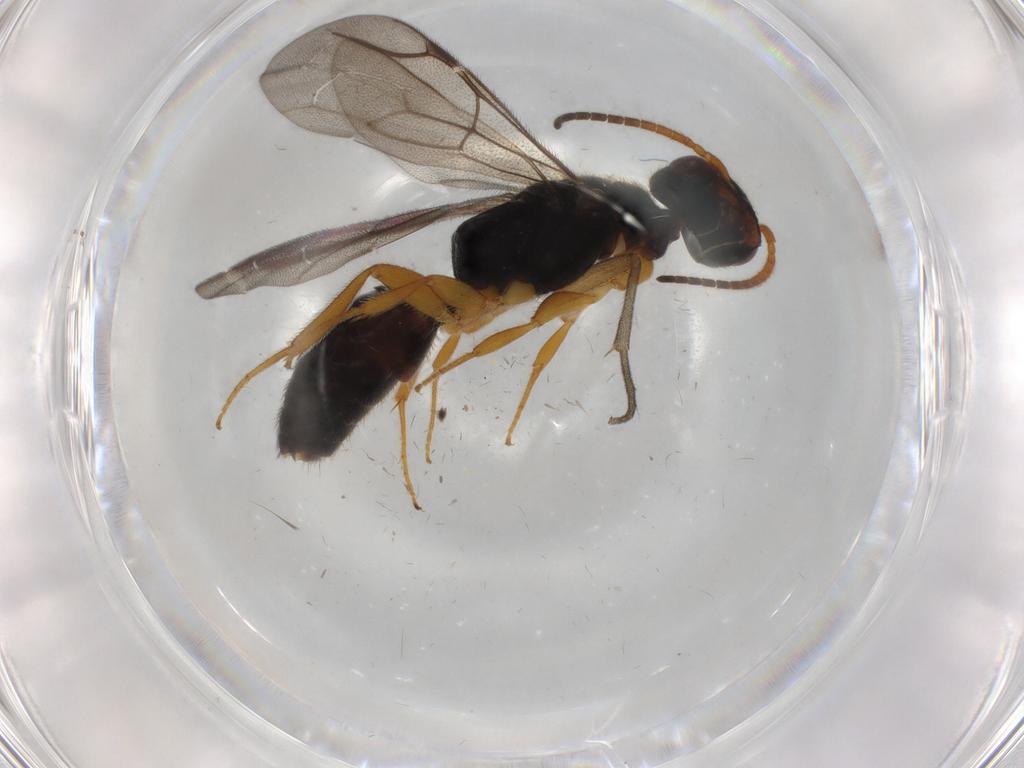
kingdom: Animalia
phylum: Arthropoda
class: Insecta
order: Hymenoptera
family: Bethylidae
